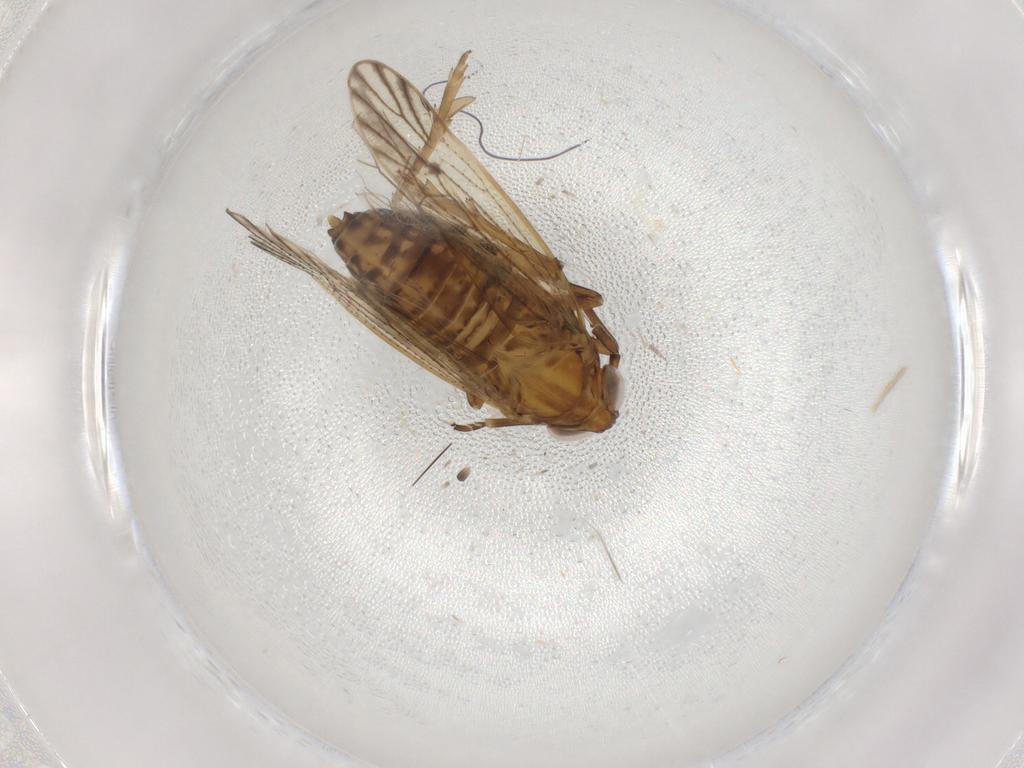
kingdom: Animalia
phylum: Arthropoda
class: Insecta
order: Hemiptera
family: Delphacidae
